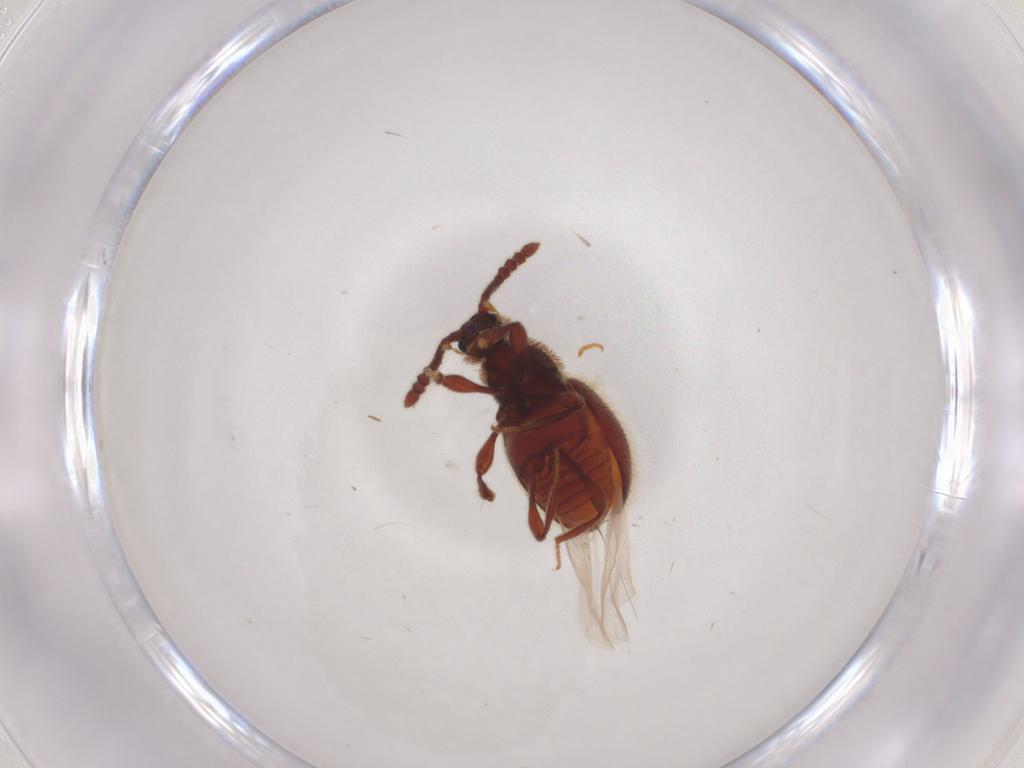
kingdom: Animalia
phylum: Arthropoda
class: Insecta
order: Coleoptera
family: Staphylinidae
